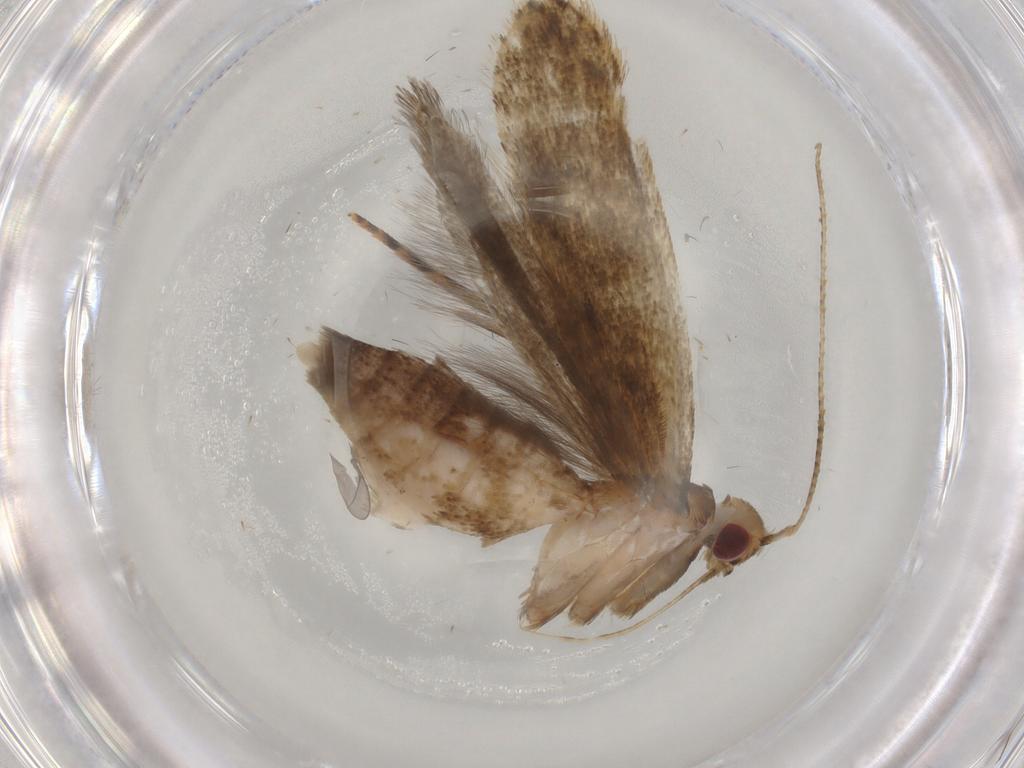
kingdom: Animalia
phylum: Arthropoda
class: Insecta
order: Lepidoptera
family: Gelechiidae
